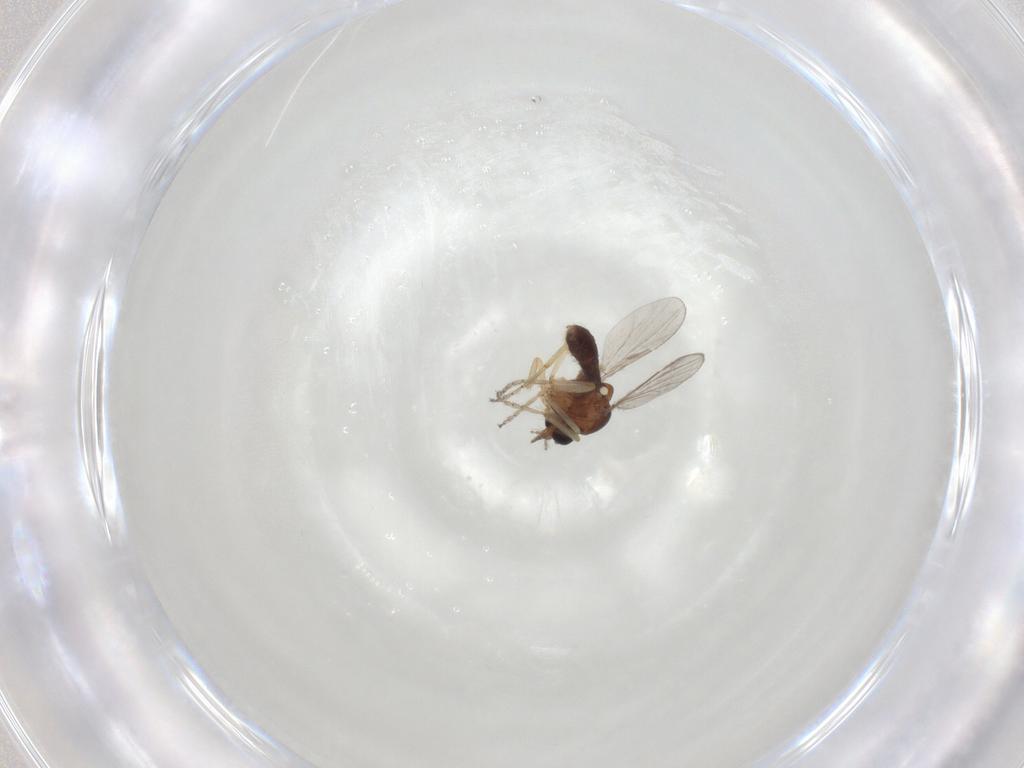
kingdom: Animalia
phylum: Arthropoda
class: Insecta
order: Diptera
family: Ceratopogonidae
